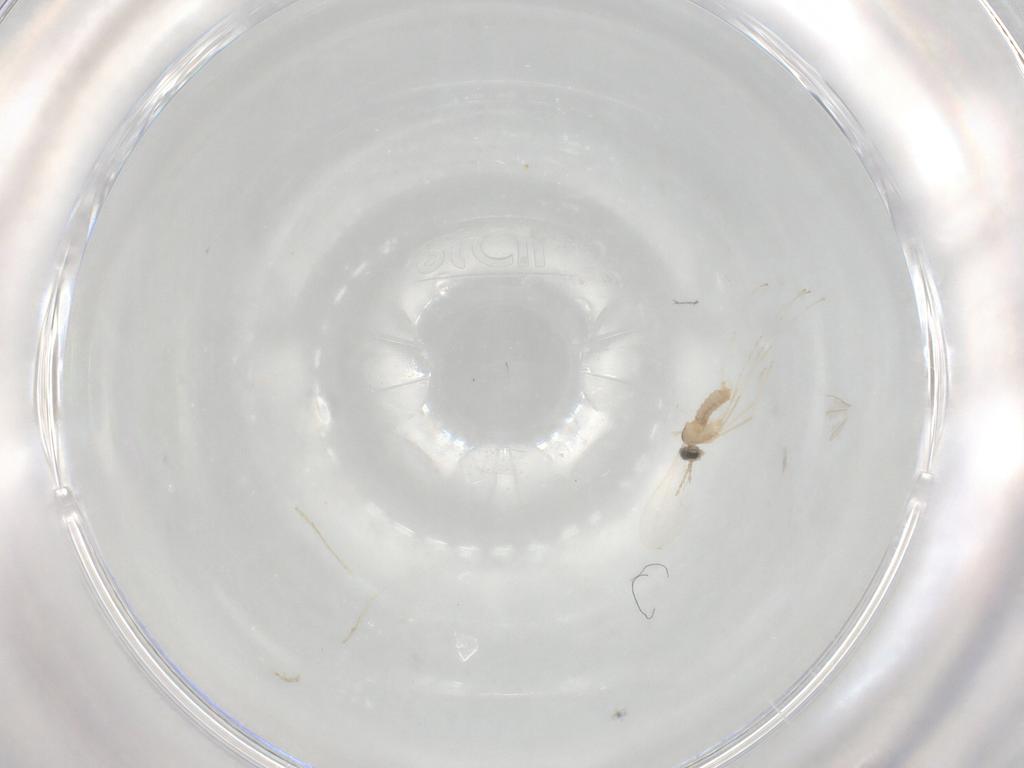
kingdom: Animalia
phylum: Arthropoda
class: Insecta
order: Diptera
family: Cecidomyiidae
